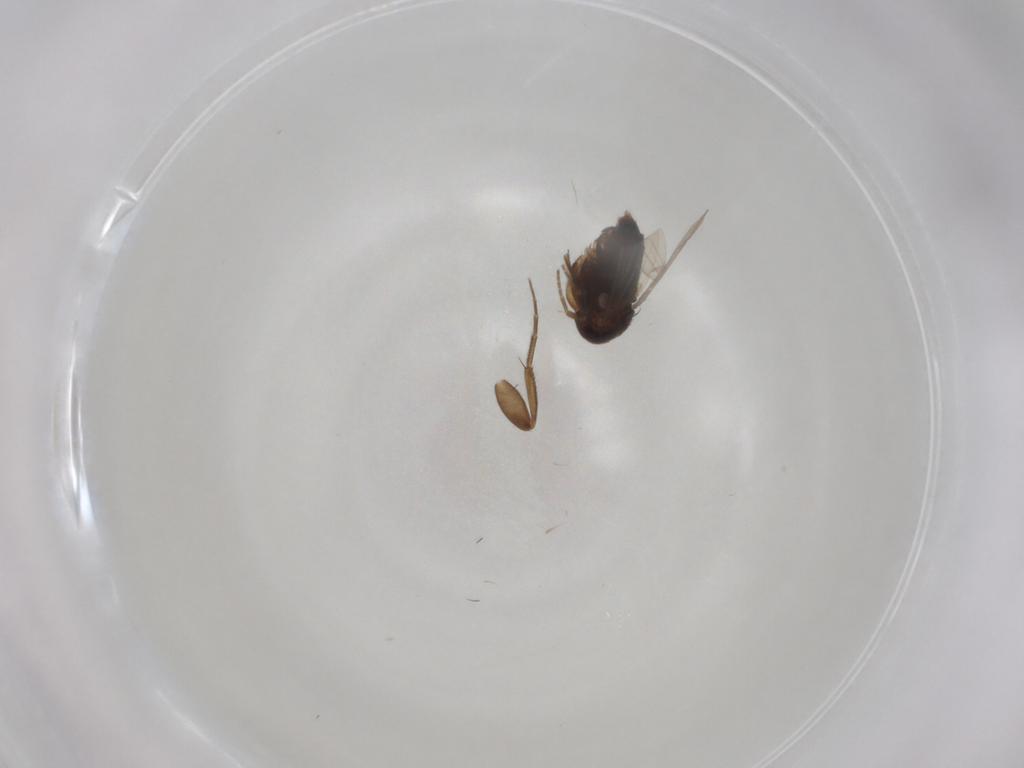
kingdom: Animalia
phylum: Arthropoda
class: Insecta
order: Diptera
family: Phoridae
